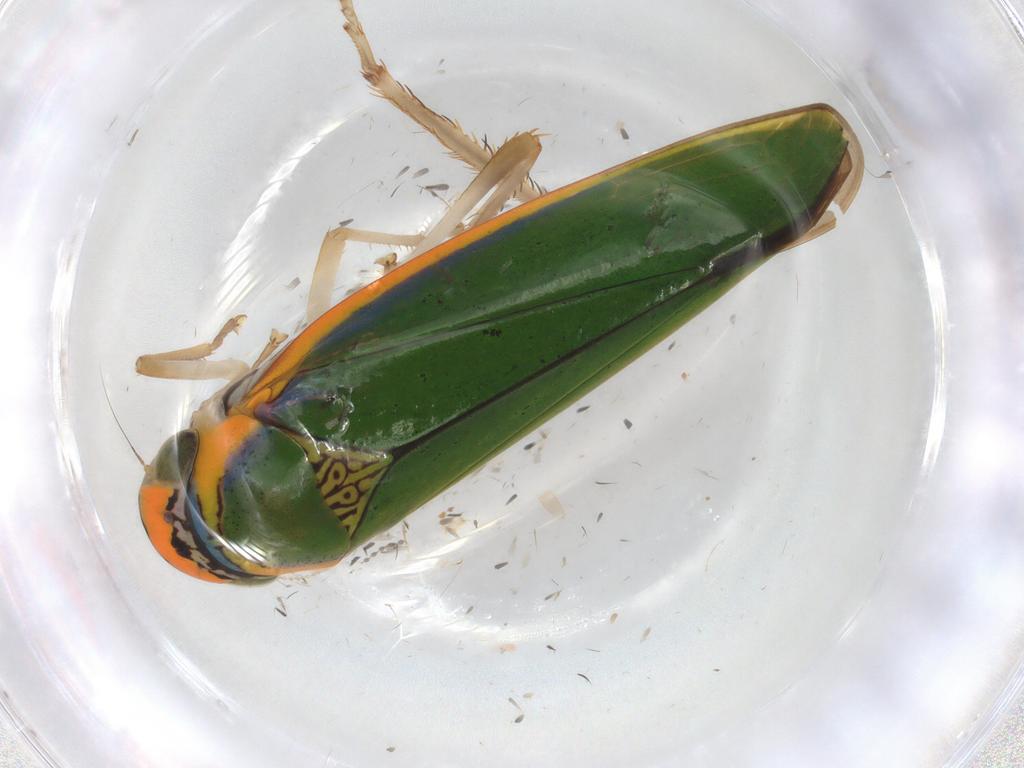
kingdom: Animalia
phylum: Arthropoda
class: Insecta
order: Hemiptera
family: Cicadellidae
